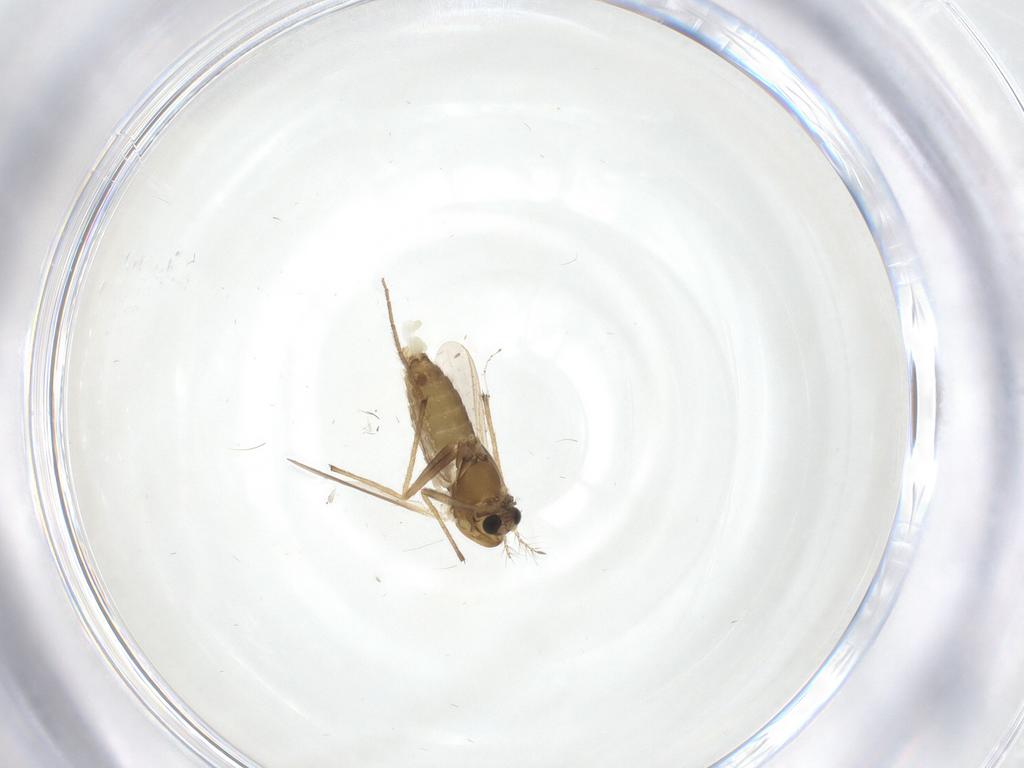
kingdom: Animalia
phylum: Arthropoda
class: Insecta
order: Diptera
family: Chironomidae
